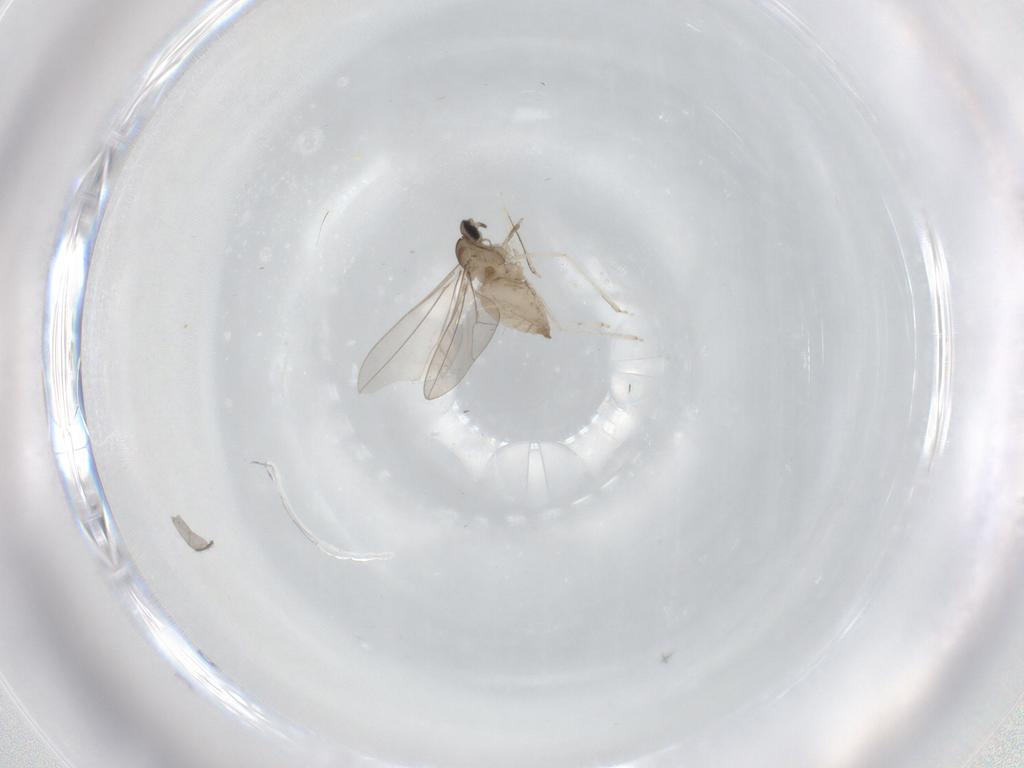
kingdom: Animalia
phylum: Arthropoda
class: Insecta
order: Diptera
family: Cecidomyiidae
